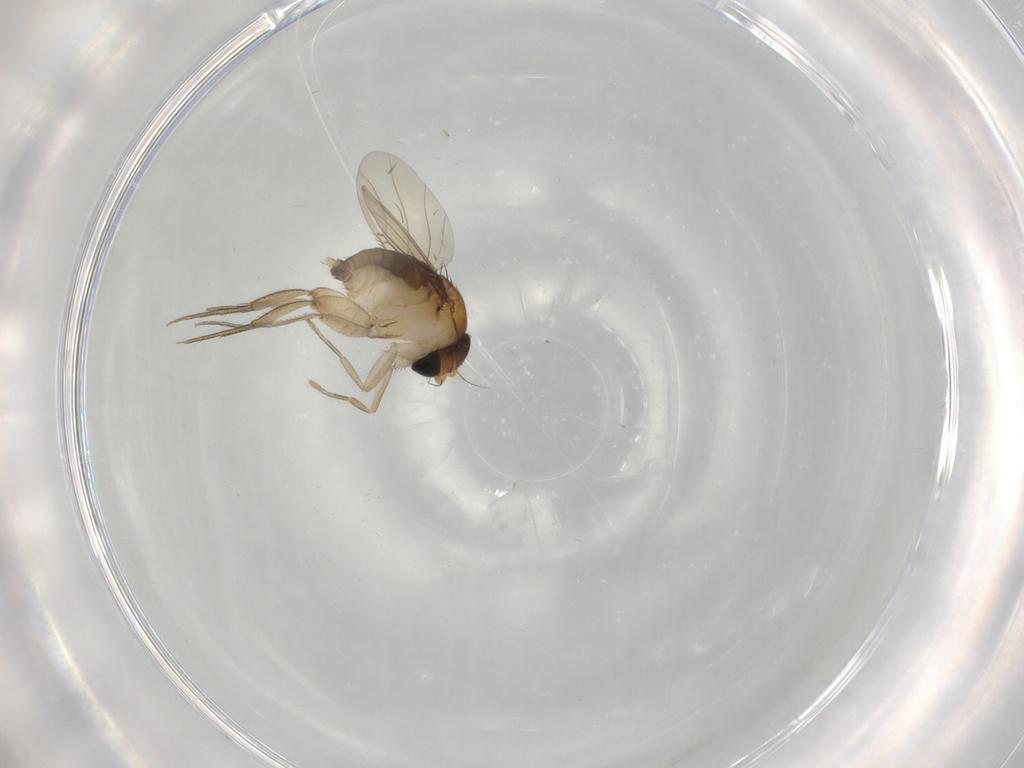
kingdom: Animalia
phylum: Arthropoda
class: Insecta
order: Diptera
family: Phoridae
